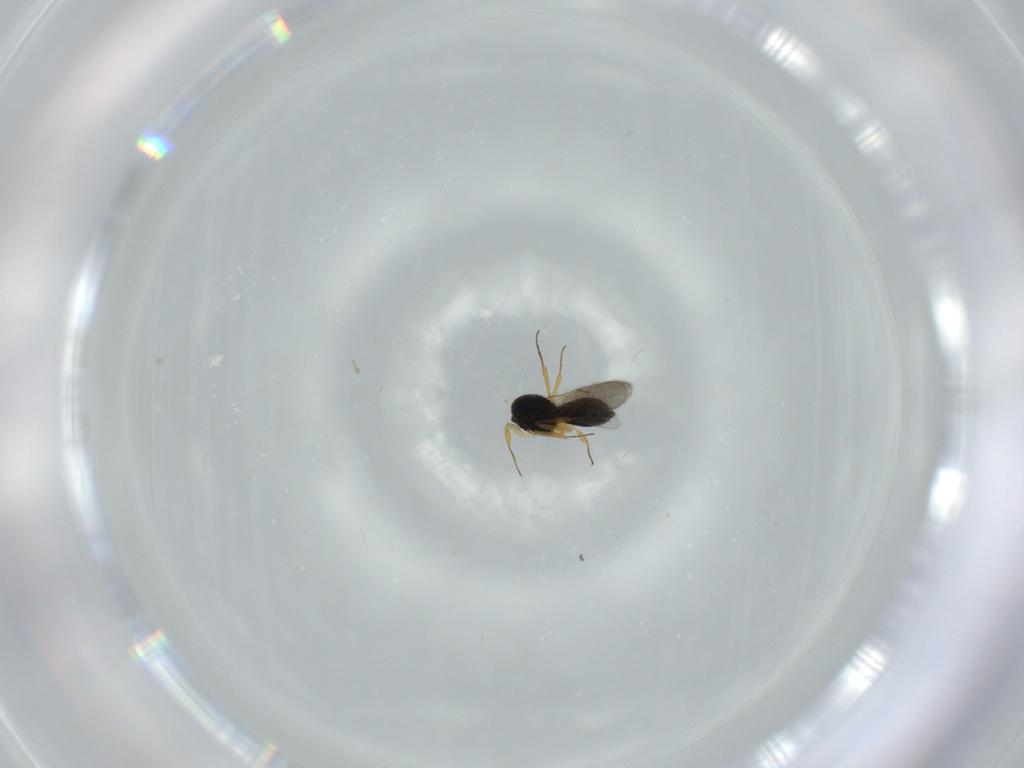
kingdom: Animalia
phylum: Arthropoda
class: Insecta
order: Hymenoptera
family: Scelionidae
